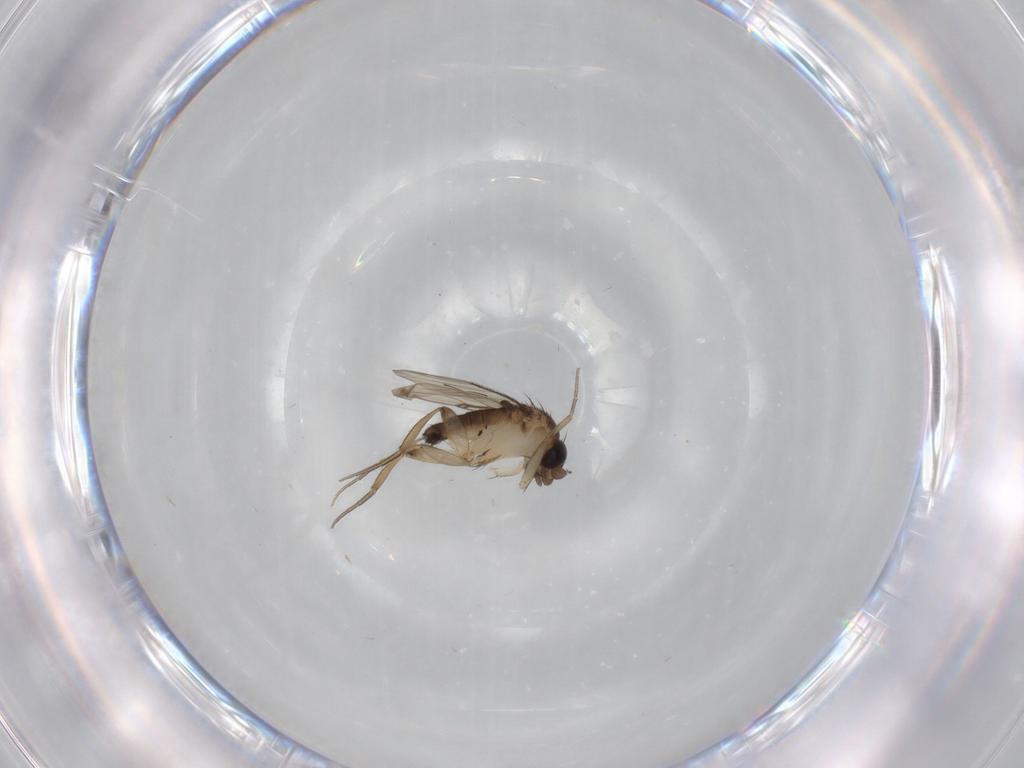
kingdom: Animalia
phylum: Arthropoda
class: Insecta
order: Diptera
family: Phoridae
